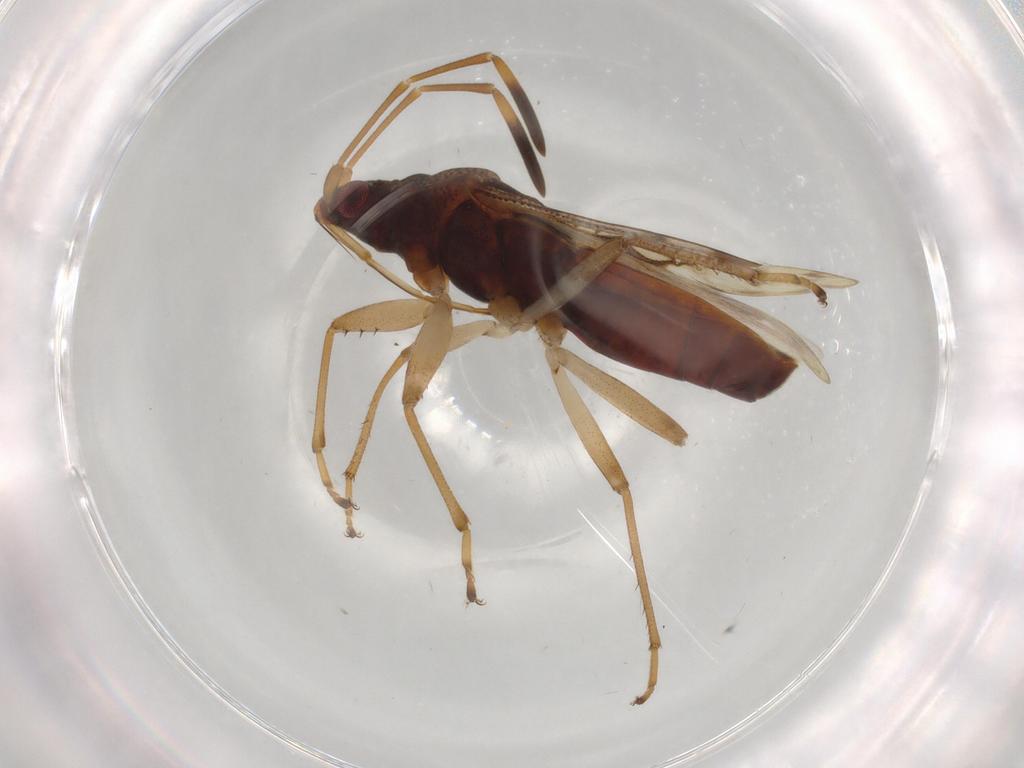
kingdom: Animalia
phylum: Arthropoda
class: Insecta
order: Hemiptera
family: Rhyparochromidae
